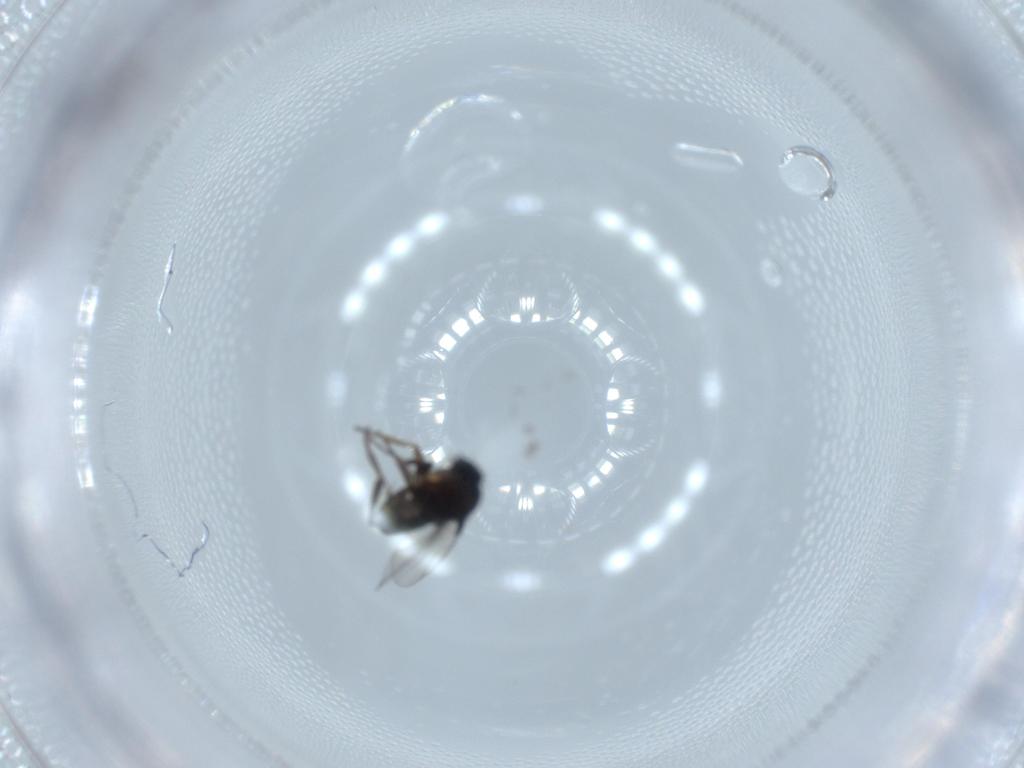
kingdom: Animalia
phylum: Arthropoda
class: Insecta
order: Diptera
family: Phoridae
